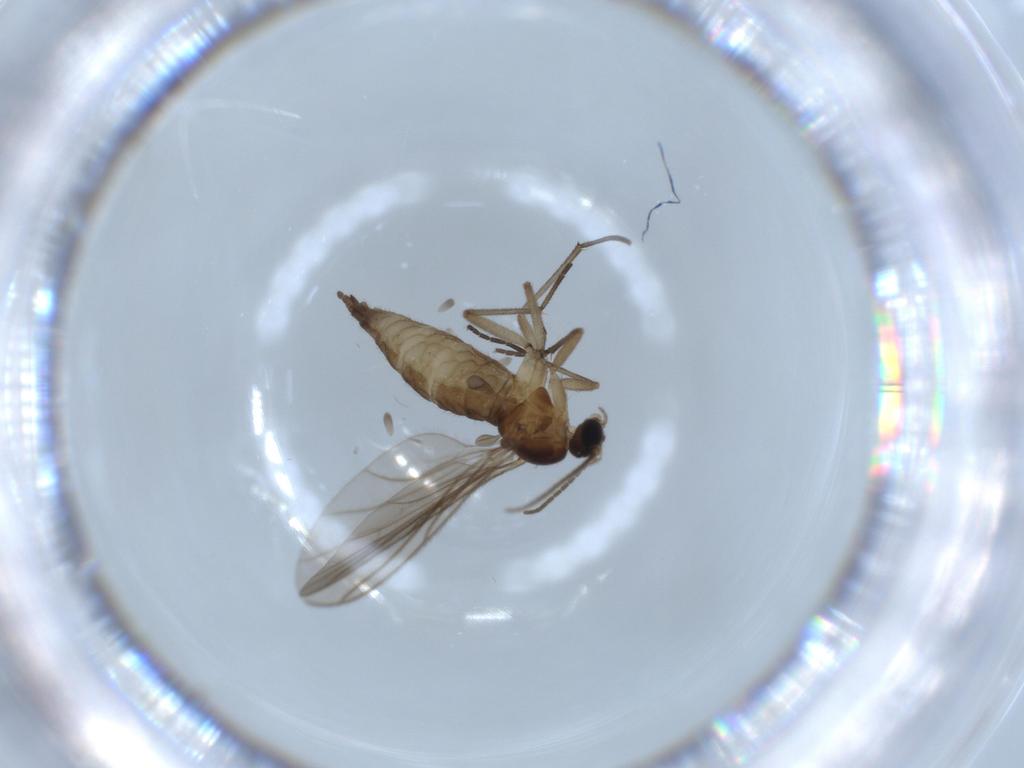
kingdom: Animalia
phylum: Arthropoda
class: Insecta
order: Diptera
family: Sciaridae
